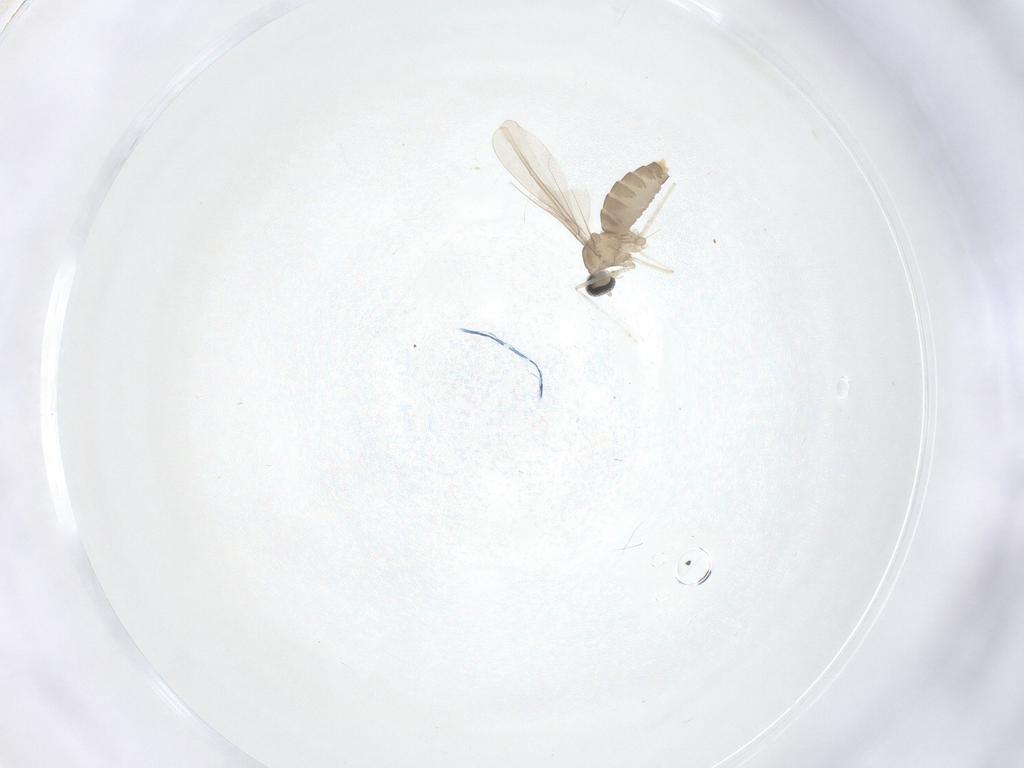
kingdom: Animalia
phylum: Arthropoda
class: Insecta
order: Diptera
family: Cecidomyiidae
